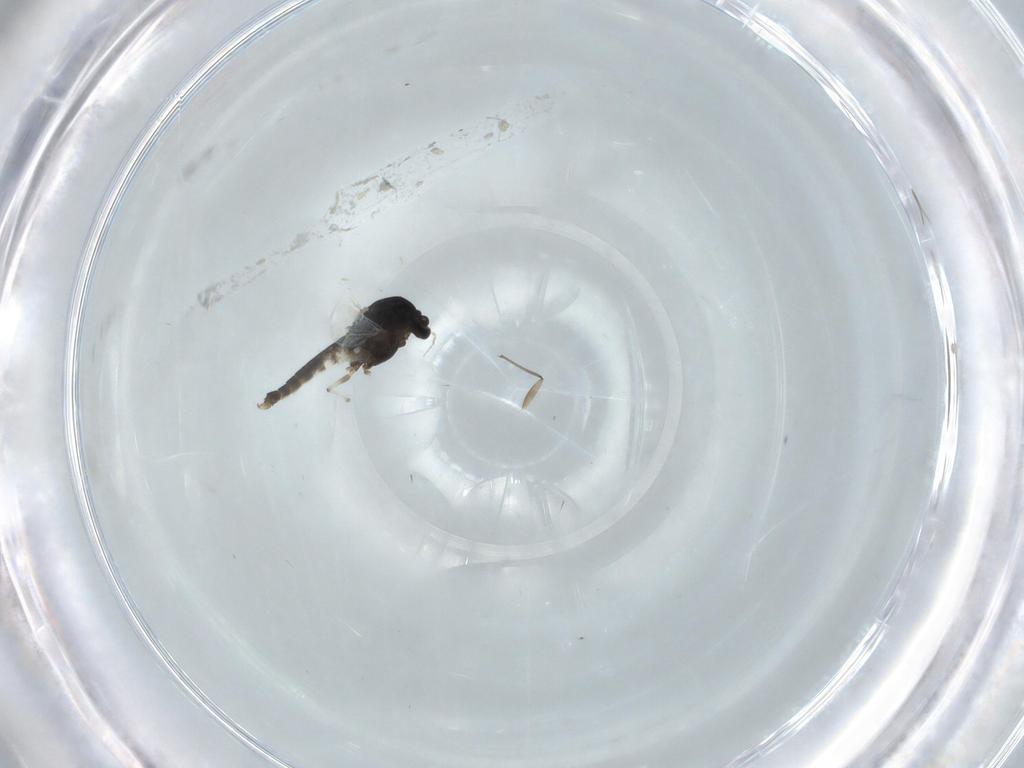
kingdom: Animalia
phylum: Arthropoda
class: Insecta
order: Diptera
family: Chironomidae
